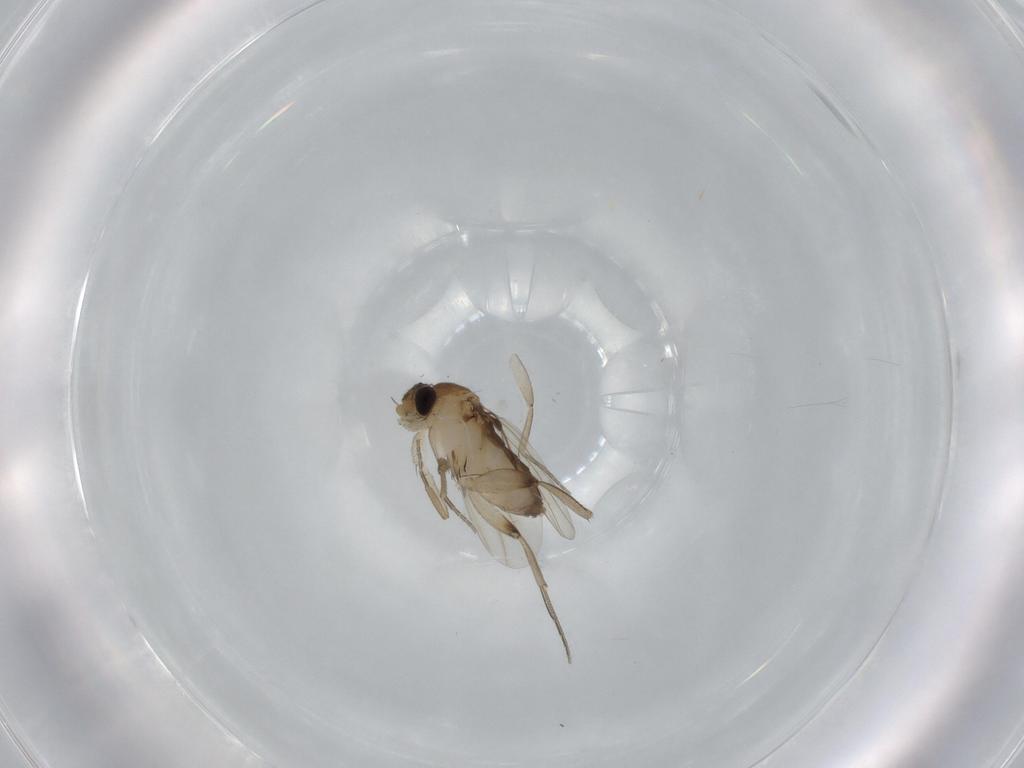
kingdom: Animalia
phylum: Arthropoda
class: Insecta
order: Diptera
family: Phoridae
